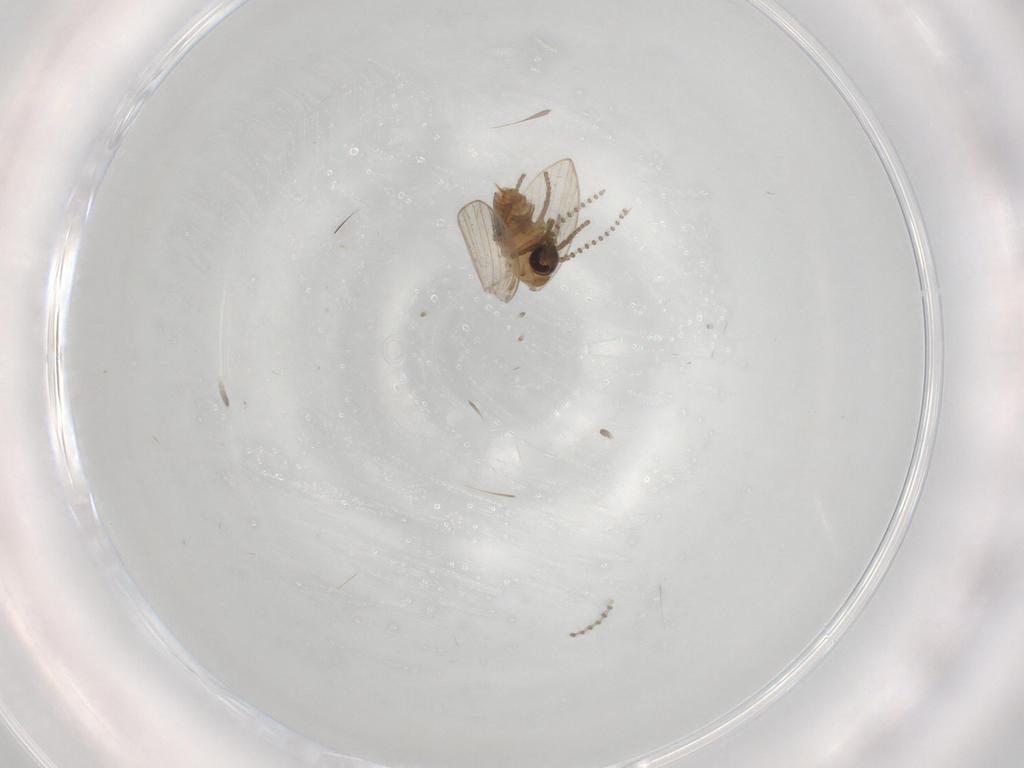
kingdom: Animalia
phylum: Arthropoda
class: Insecta
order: Diptera
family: Psychodidae
